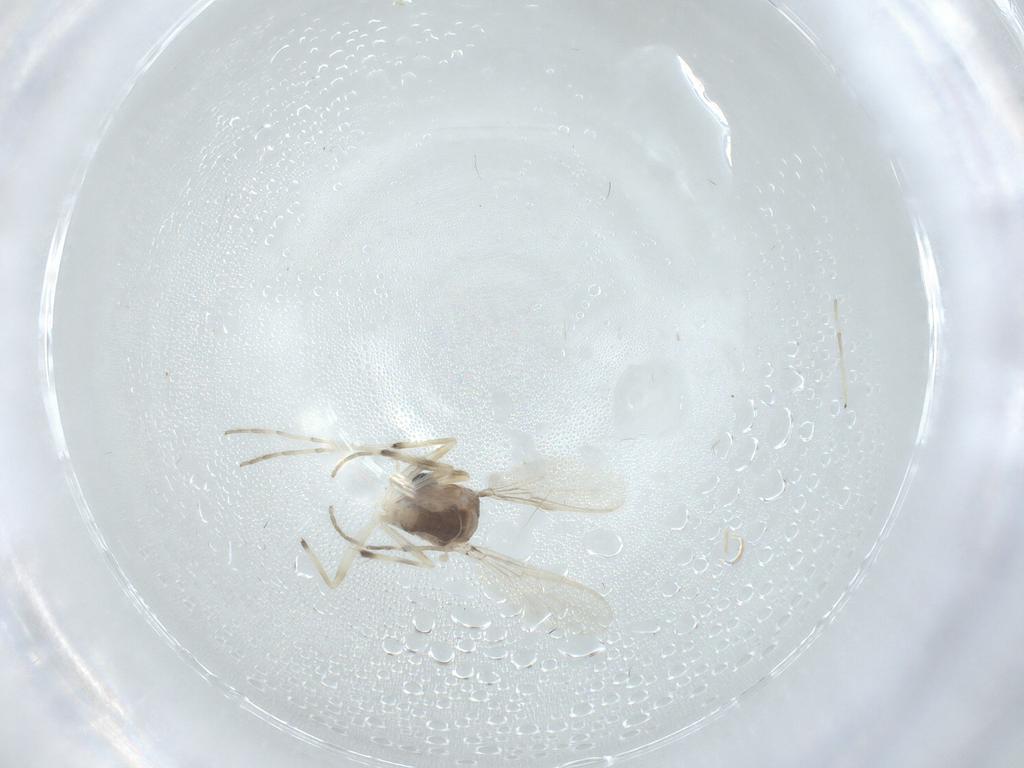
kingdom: Animalia
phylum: Arthropoda
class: Insecta
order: Diptera
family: Chironomidae
